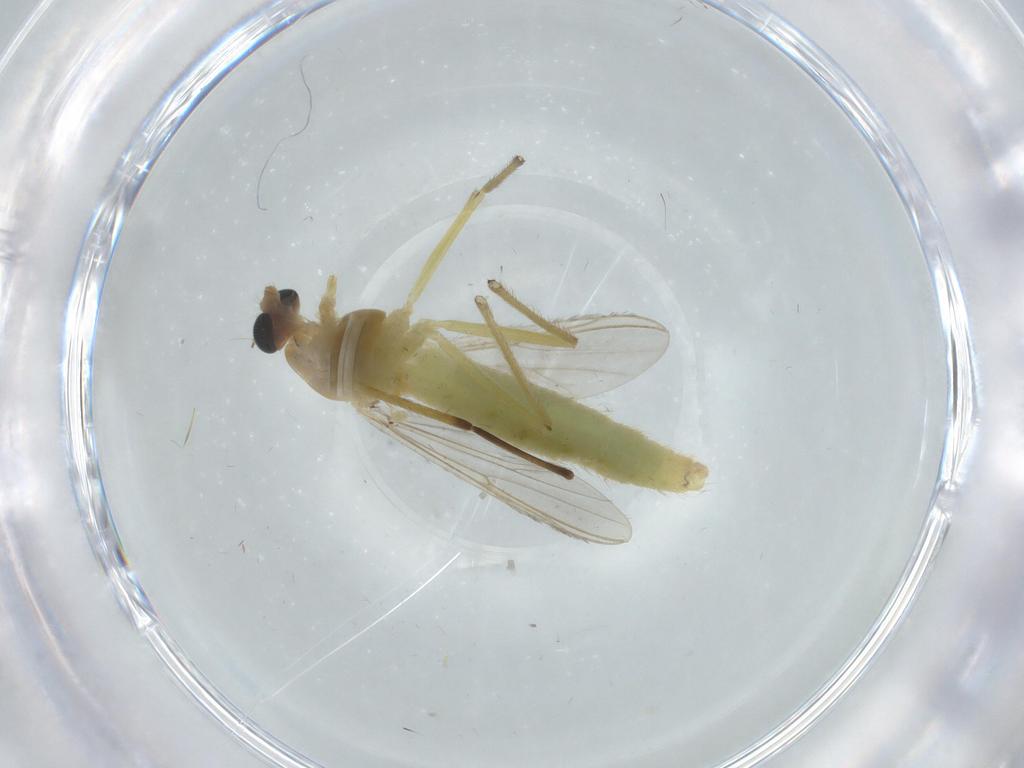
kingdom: Animalia
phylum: Arthropoda
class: Insecta
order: Diptera
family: Chironomidae
